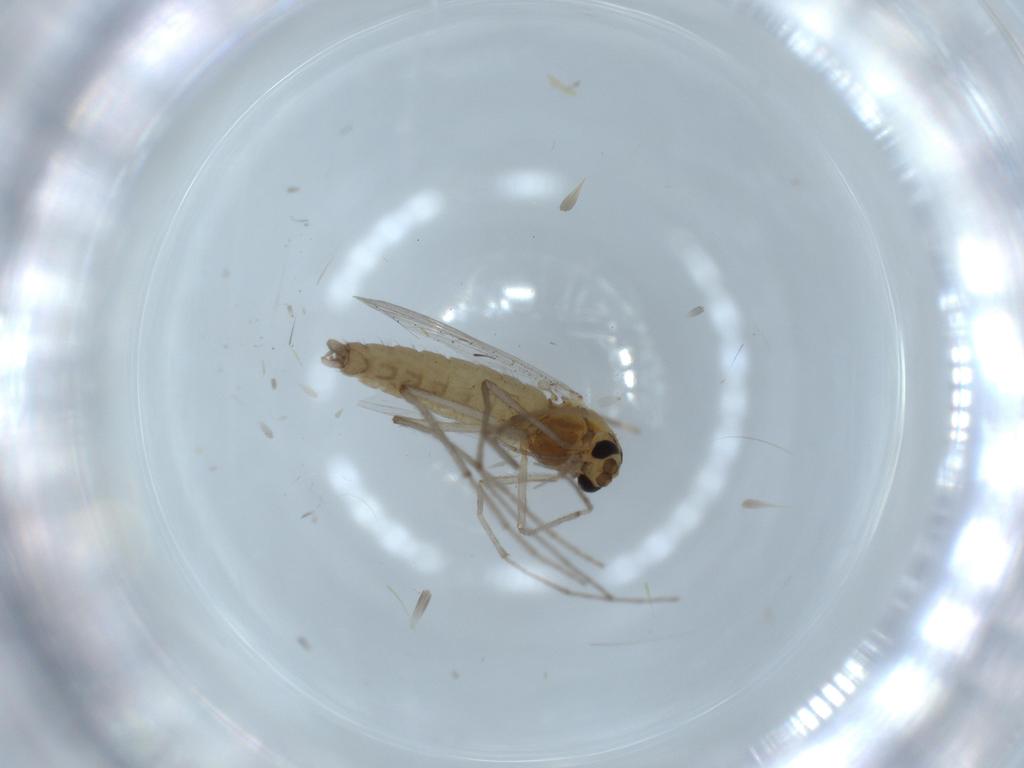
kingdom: Animalia
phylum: Arthropoda
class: Insecta
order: Diptera
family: Chironomidae
